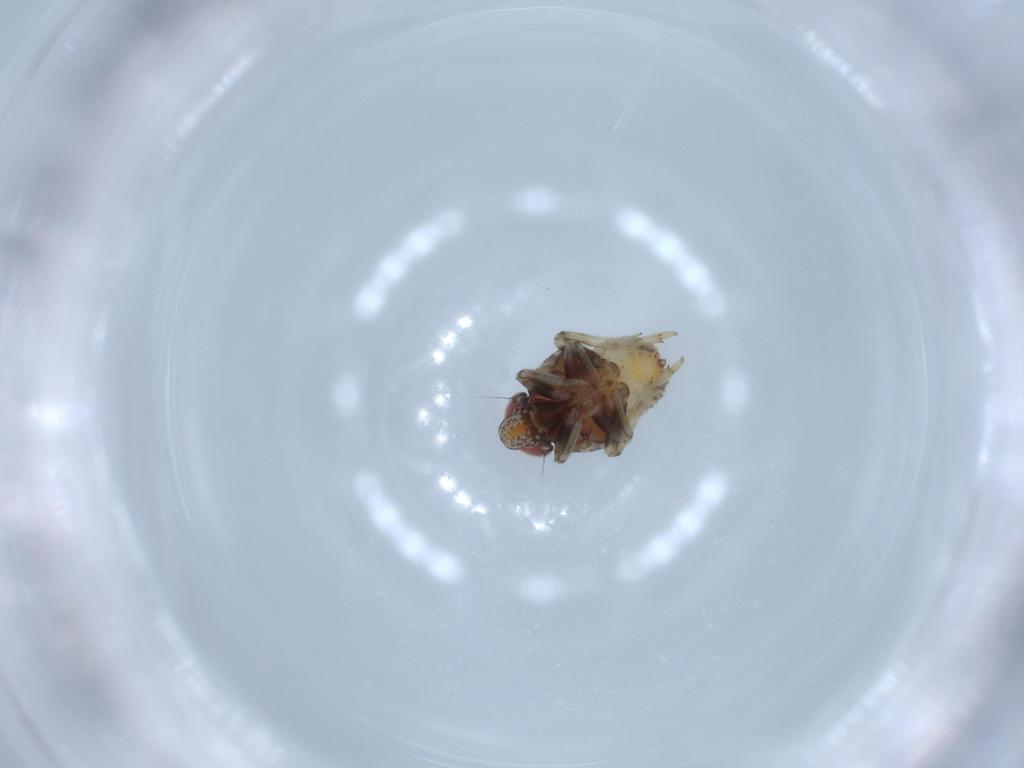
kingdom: Animalia
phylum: Arthropoda
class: Insecta
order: Hemiptera
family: Issidae
